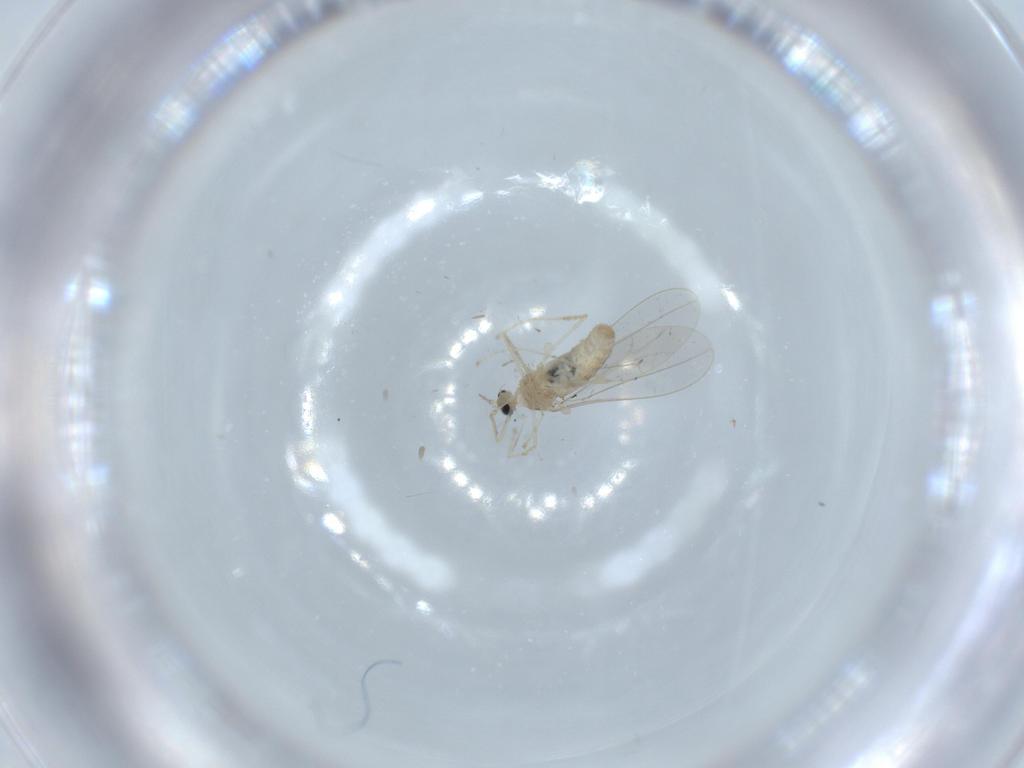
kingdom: Animalia
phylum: Arthropoda
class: Insecta
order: Diptera
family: Cecidomyiidae
